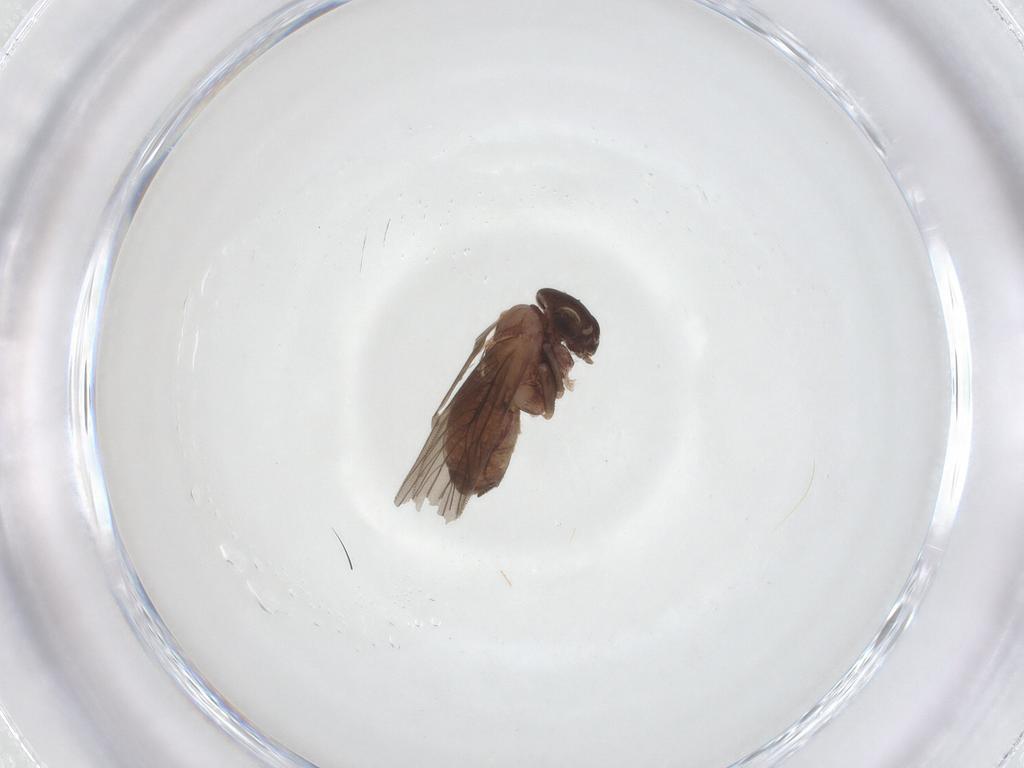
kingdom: Animalia
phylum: Arthropoda
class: Insecta
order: Psocodea
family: Lepidopsocidae
